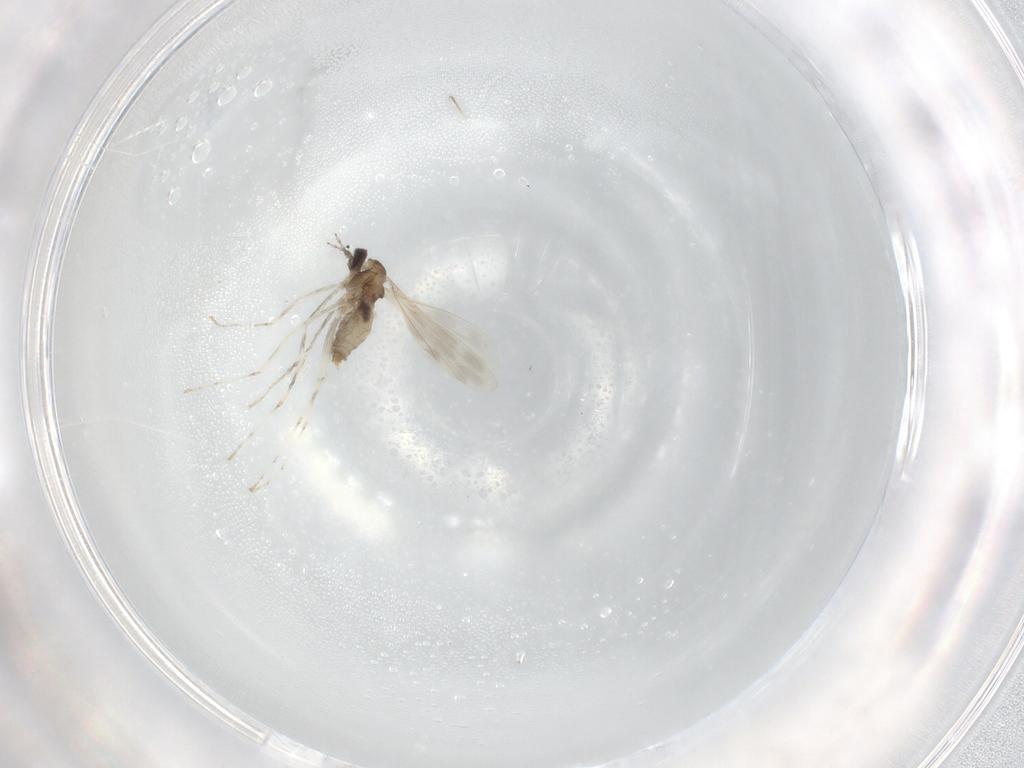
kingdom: Animalia
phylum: Arthropoda
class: Insecta
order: Diptera
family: Cecidomyiidae
